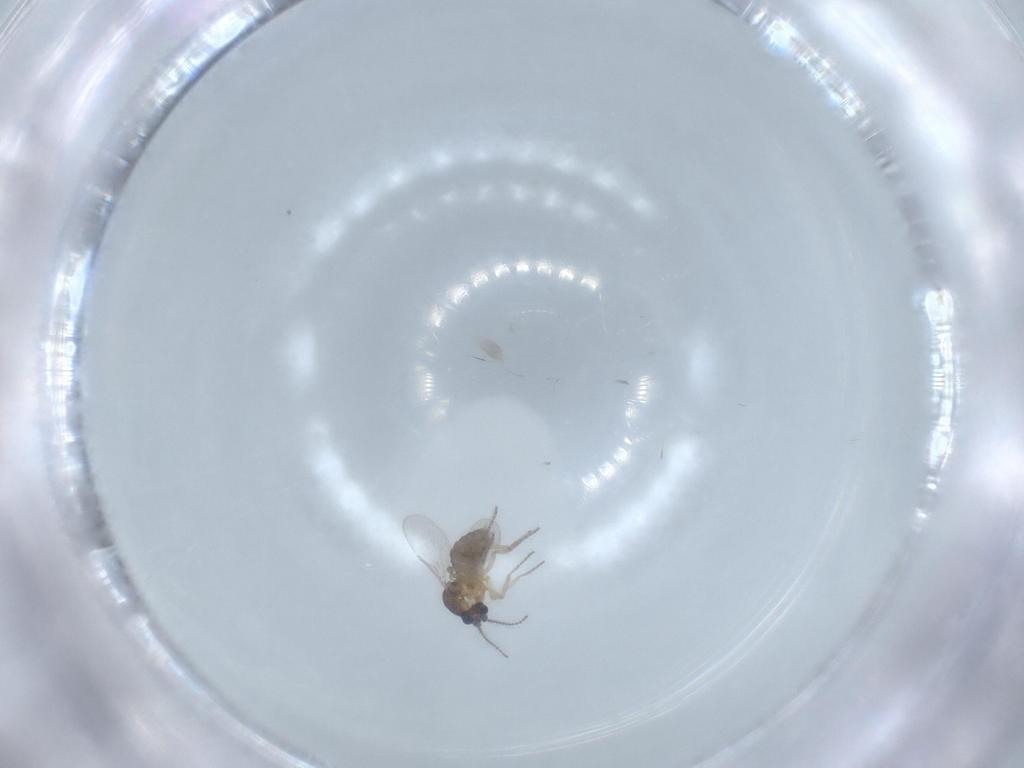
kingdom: Animalia
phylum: Arthropoda
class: Insecta
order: Diptera
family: Ceratopogonidae
